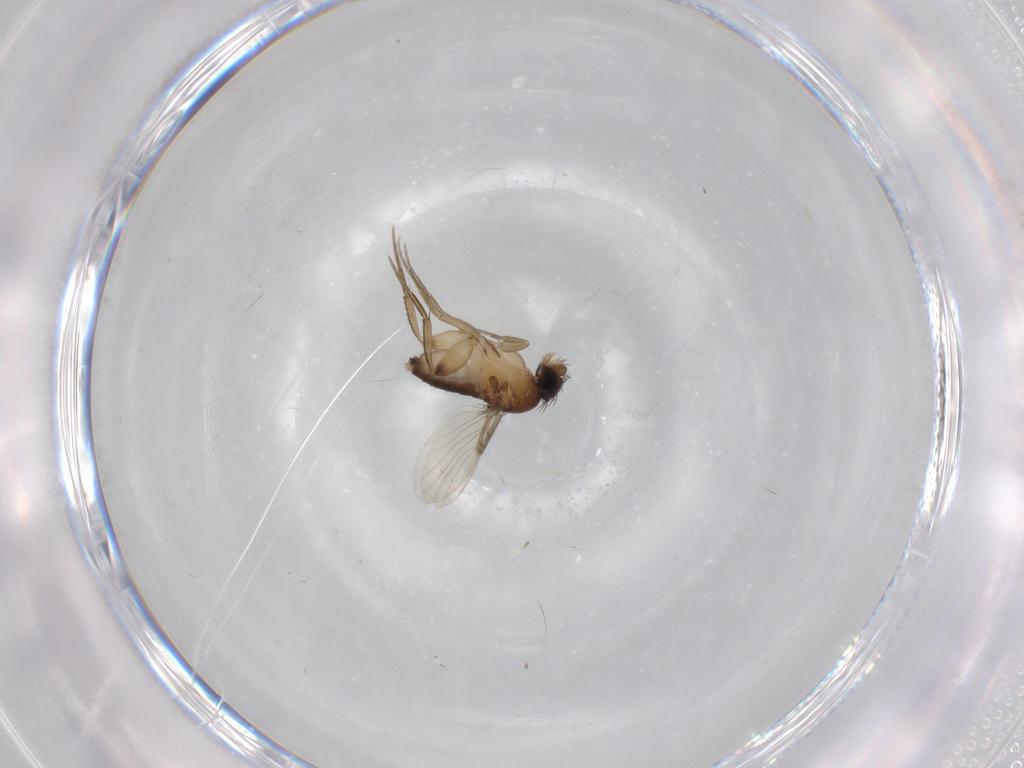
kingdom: Animalia
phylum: Arthropoda
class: Insecta
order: Diptera
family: Phoridae
